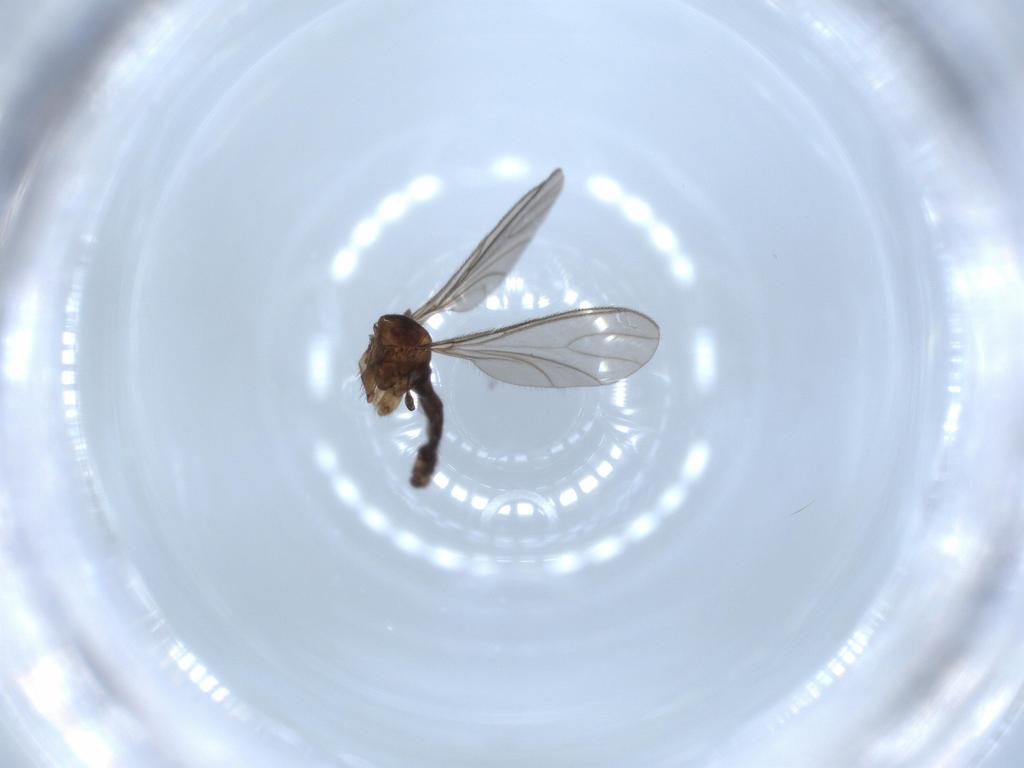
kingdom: Animalia
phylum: Arthropoda
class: Insecta
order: Diptera
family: Sciaridae
